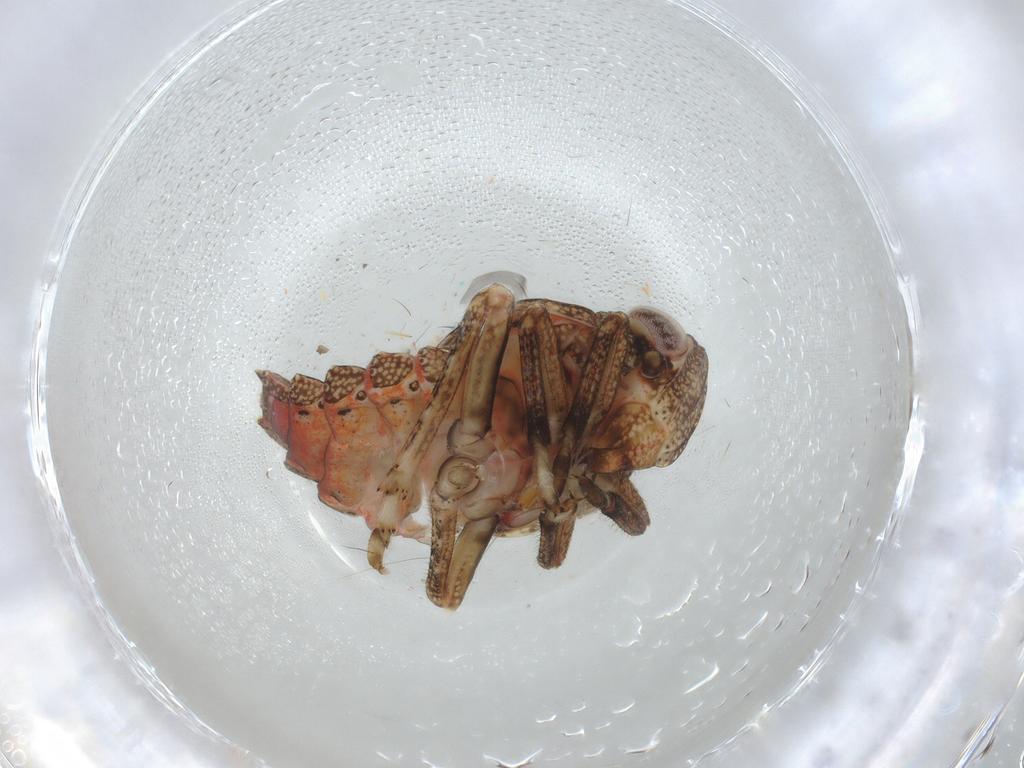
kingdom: Animalia
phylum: Arthropoda
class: Insecta
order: Hemiptera
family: Tropiduchidae
